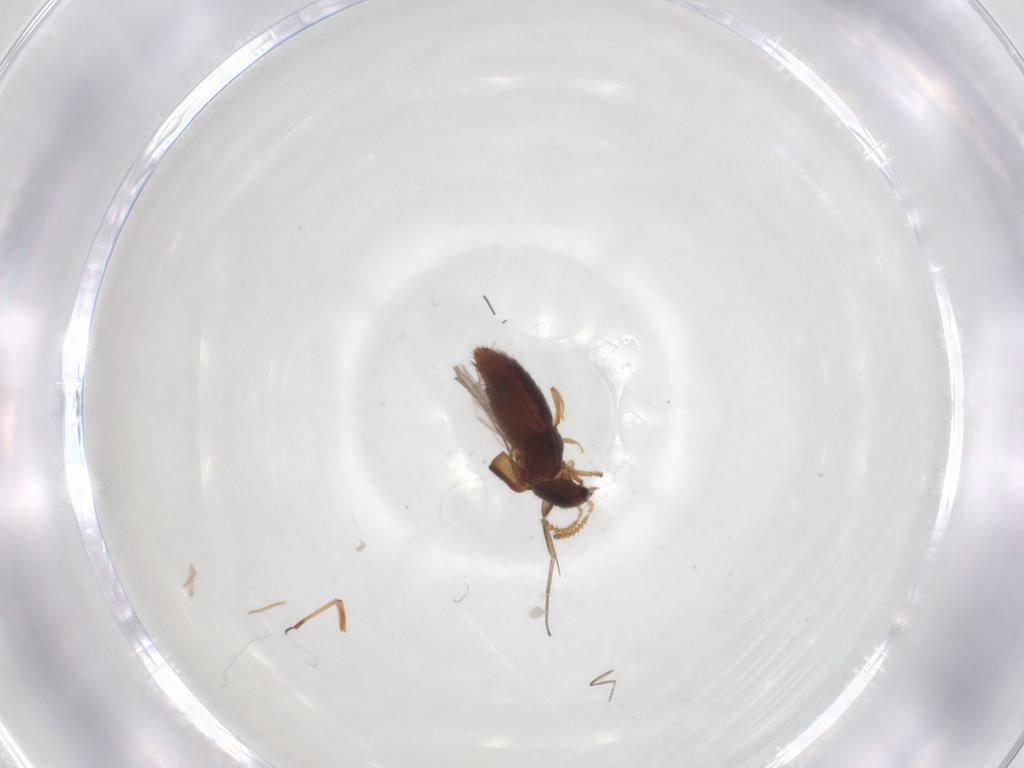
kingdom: Animalia
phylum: Arthropoda
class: Insecta
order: Coleoptera
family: Staphylinidae
